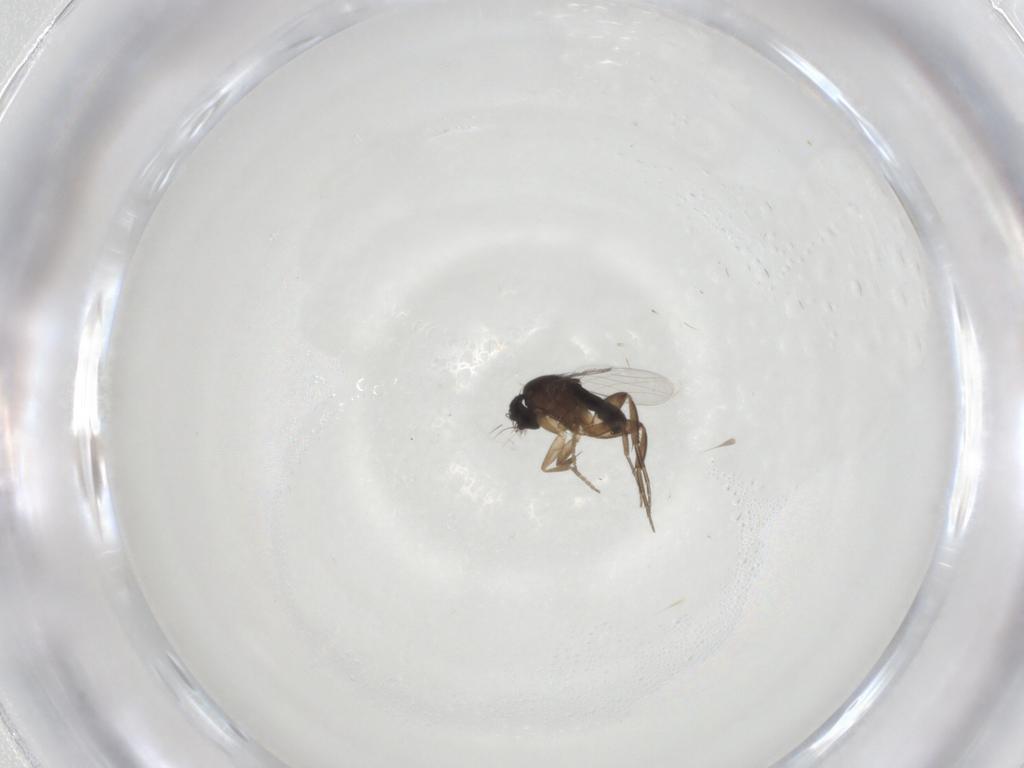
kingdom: Animalia
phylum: Arthropoda
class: Insecta
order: Diptera
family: Phoridae
